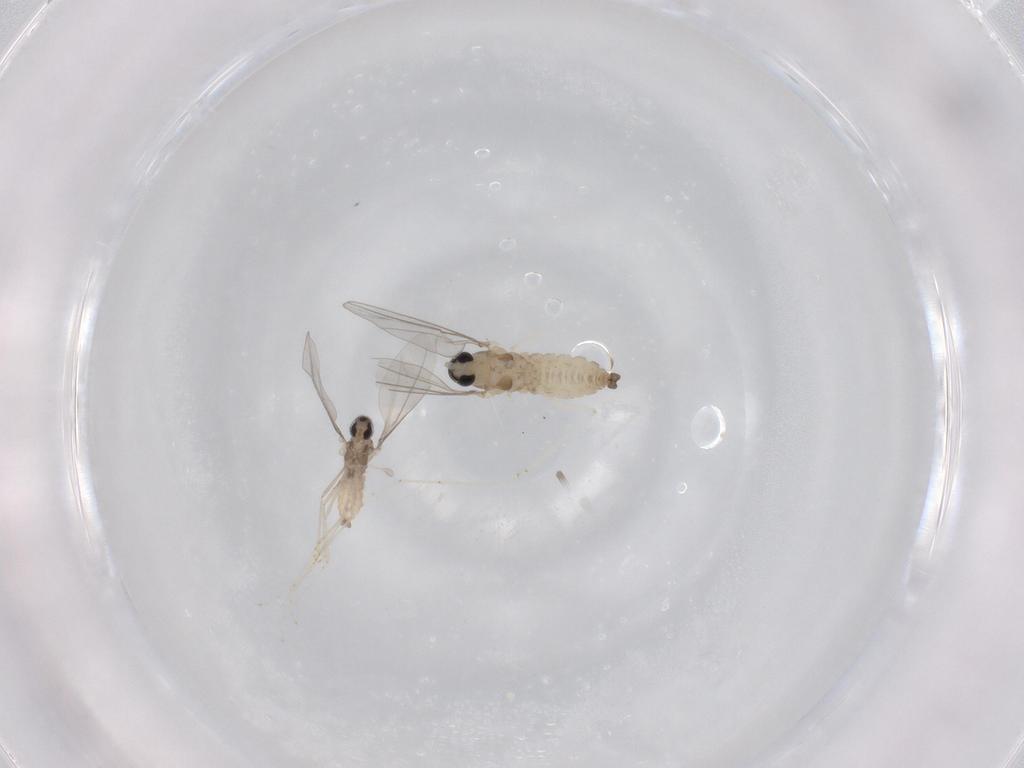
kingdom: Animalia
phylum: Arthropoda
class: Insecta
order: Diptera
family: Cecidomyiidae
